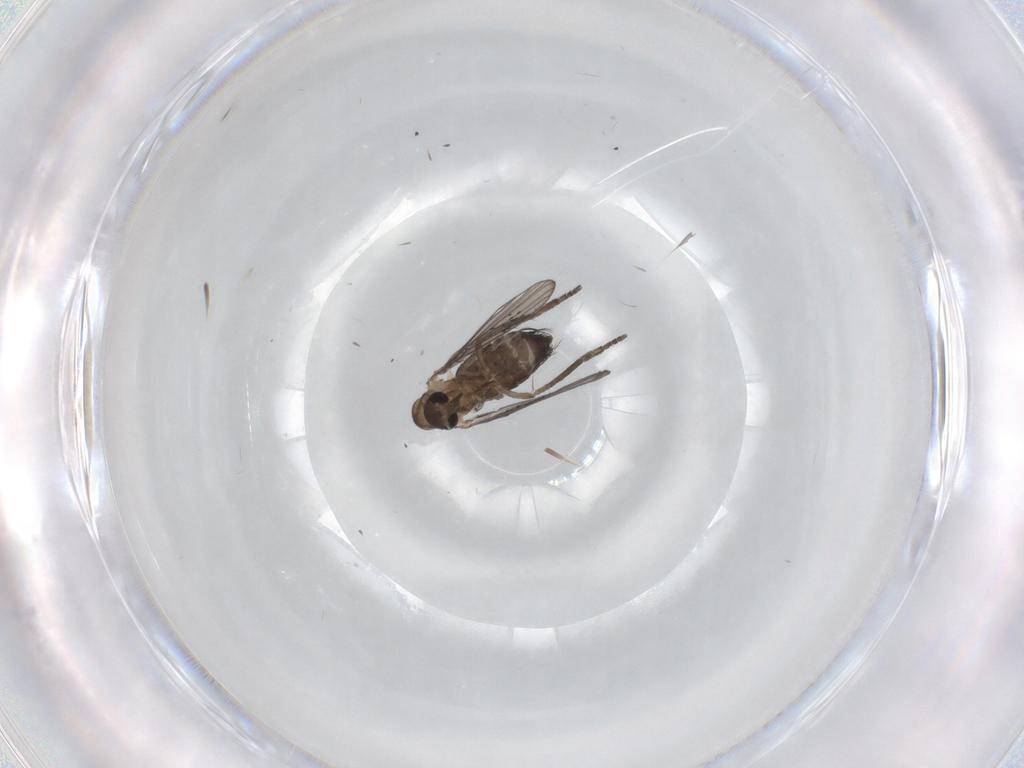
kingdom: Animalia
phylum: Arthropoda
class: Insecta
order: Diptera
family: Psychodidae
